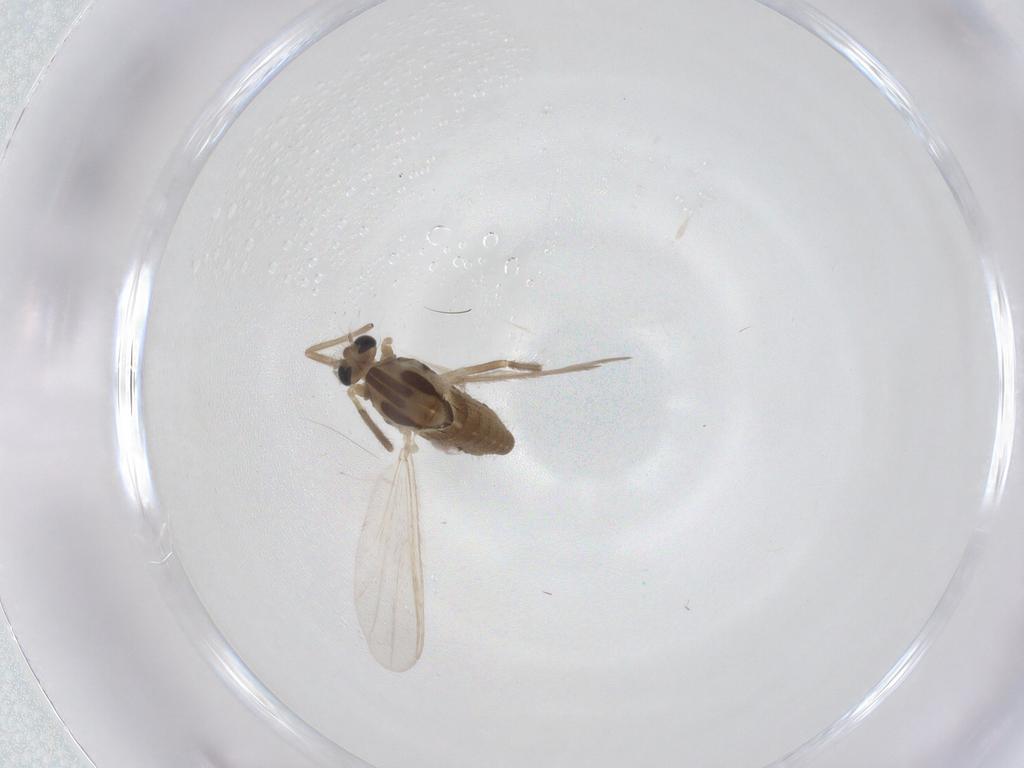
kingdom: Animalia
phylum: Arthropoda
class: Insecta
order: Diptera
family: Chironomidae
